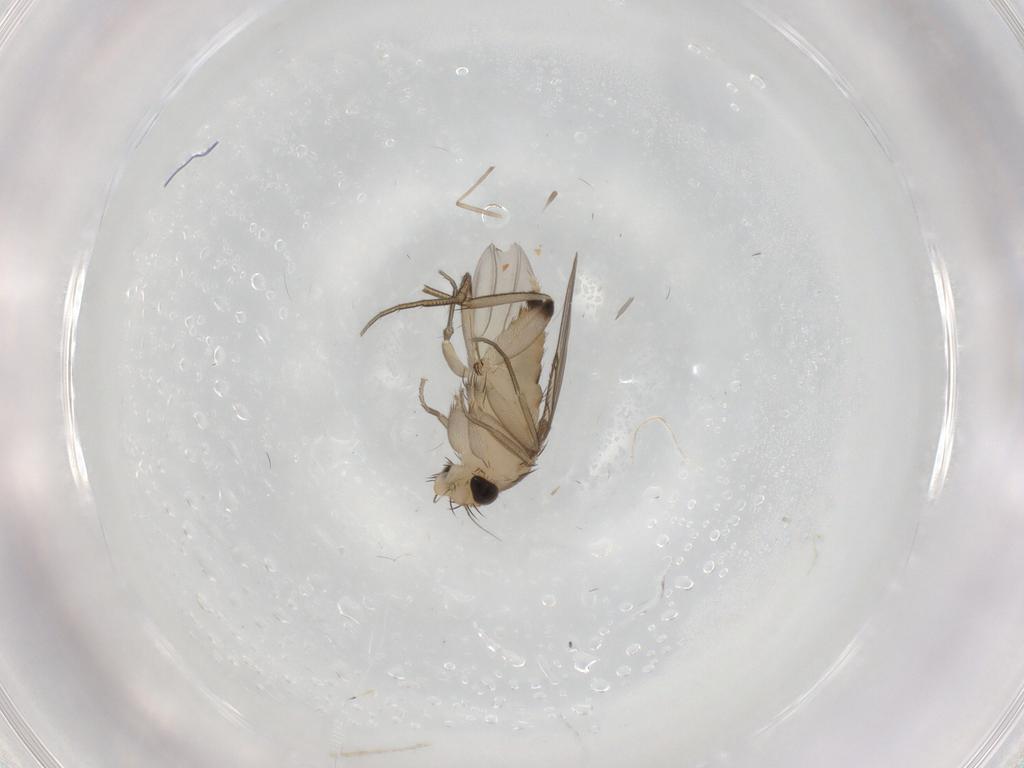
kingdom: Animalia
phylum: Arthropoda
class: Insecta
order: Diptera
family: Phoridae
